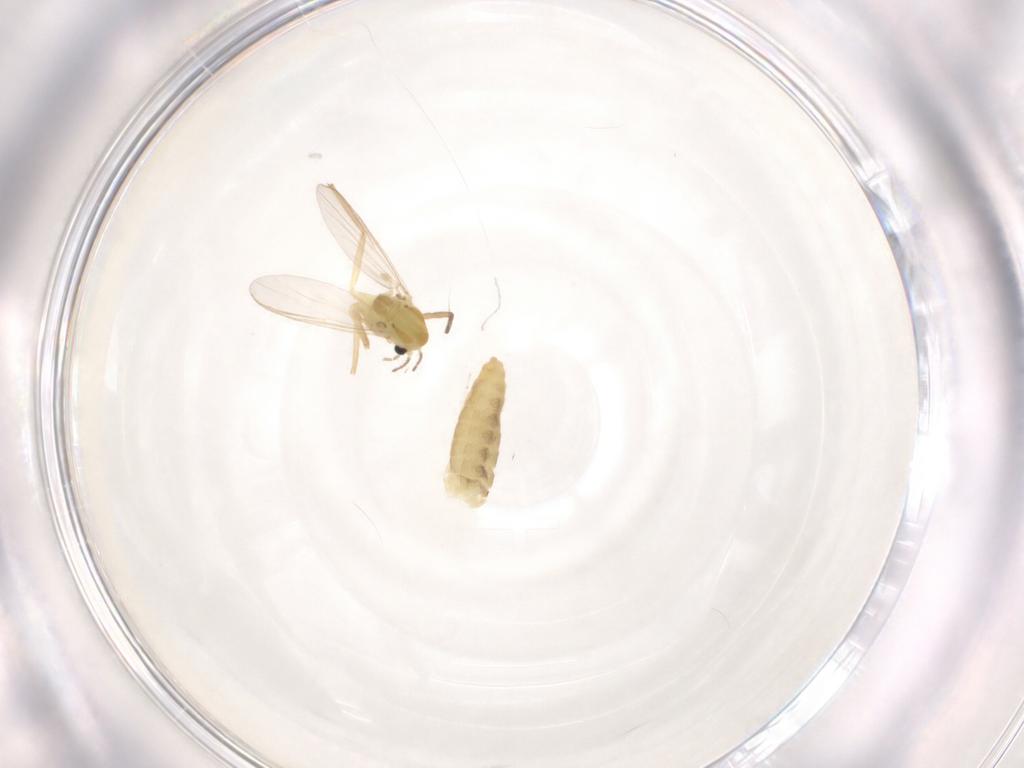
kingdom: Animalia
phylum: Arthropoda
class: Insecta
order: Diptera
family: Chironomidae
